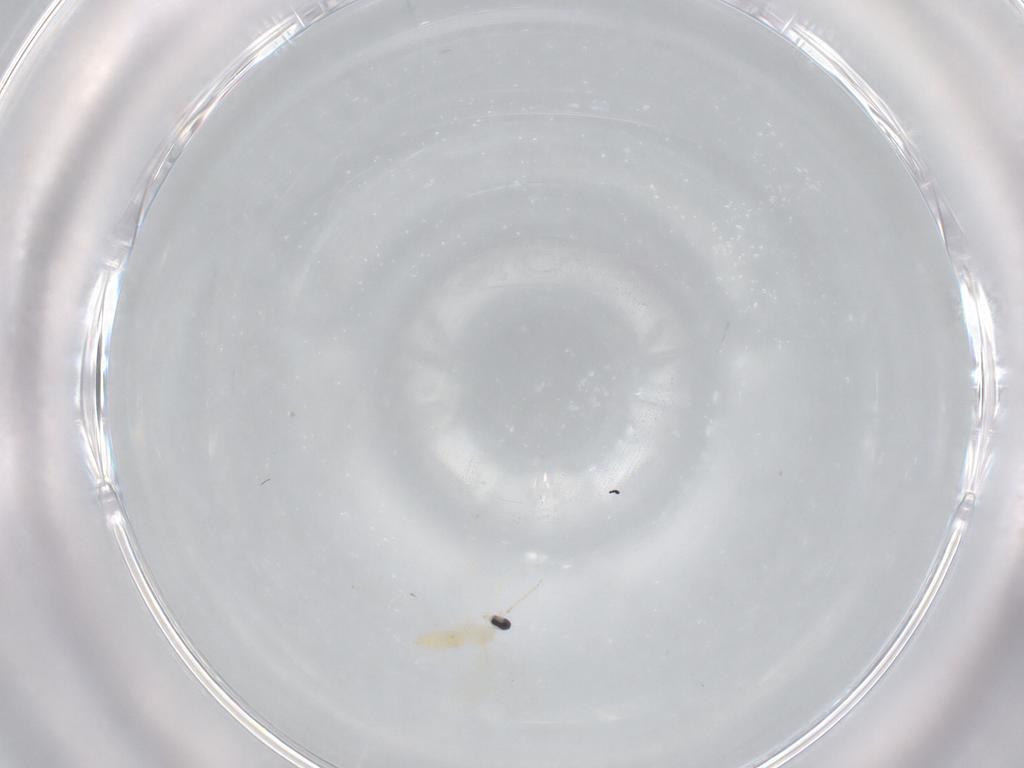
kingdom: Animalia
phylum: Arthropoda
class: Insecta
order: Diptera
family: Cecidomyiidae
